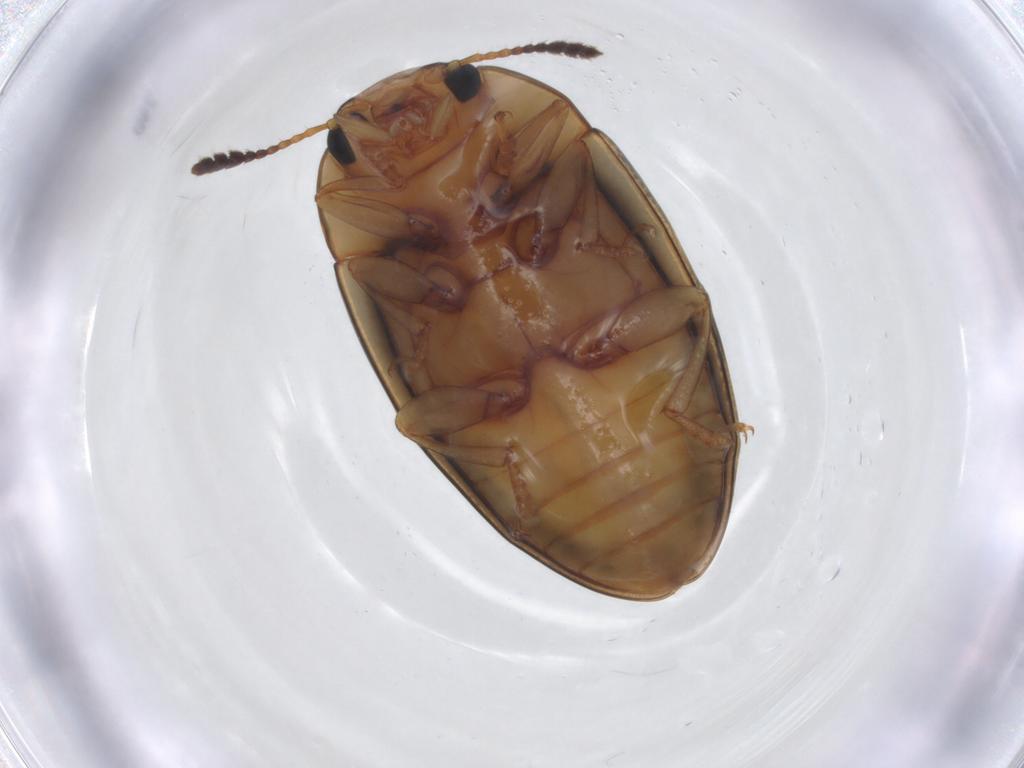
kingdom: Animalia
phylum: Arthropoda
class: Insecta
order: Coleoptera
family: Erotylidae
